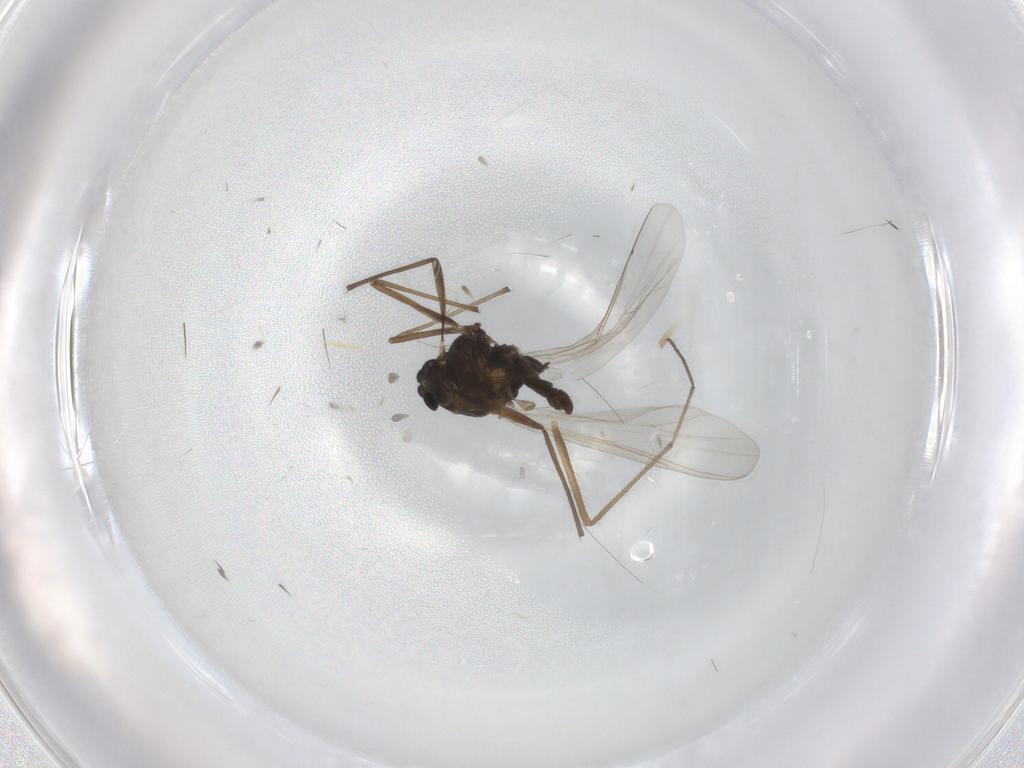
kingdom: Animalia
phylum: Arthropoda
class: Insecta
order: Diptera
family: Chironomidae
